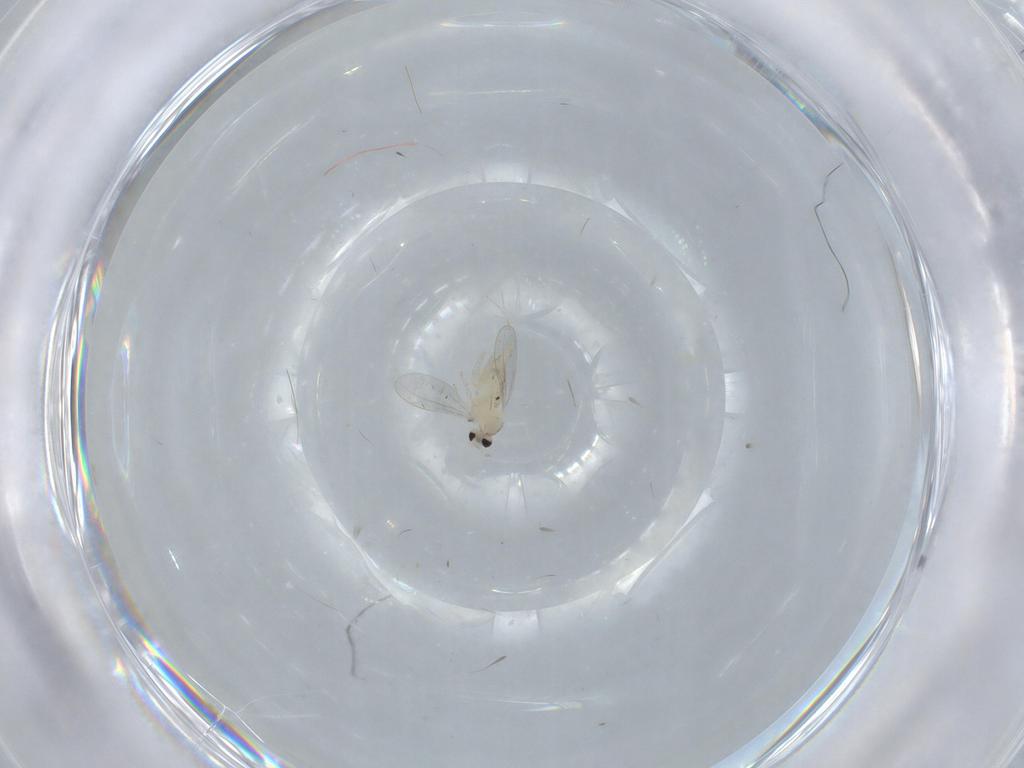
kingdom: Animalia
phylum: Arthropoda
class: Insecta
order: Diptera
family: Cecidomyiidae
